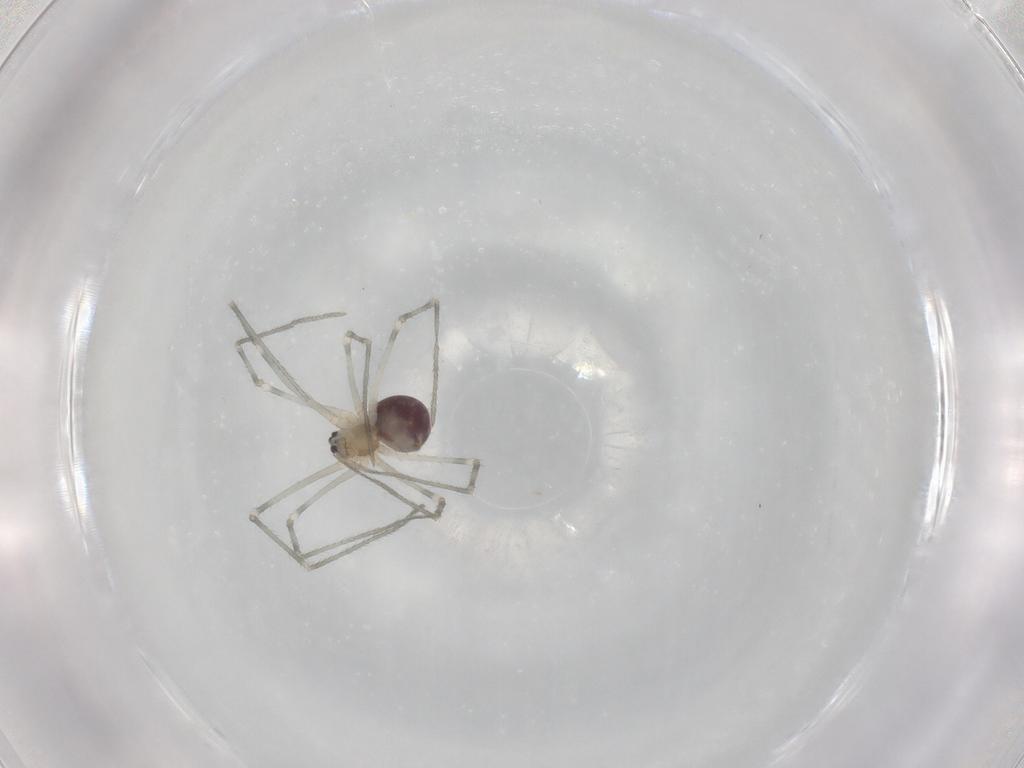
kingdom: Animalia
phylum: Arthropoda
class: Arachnida
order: Araneae
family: Pholcidae
